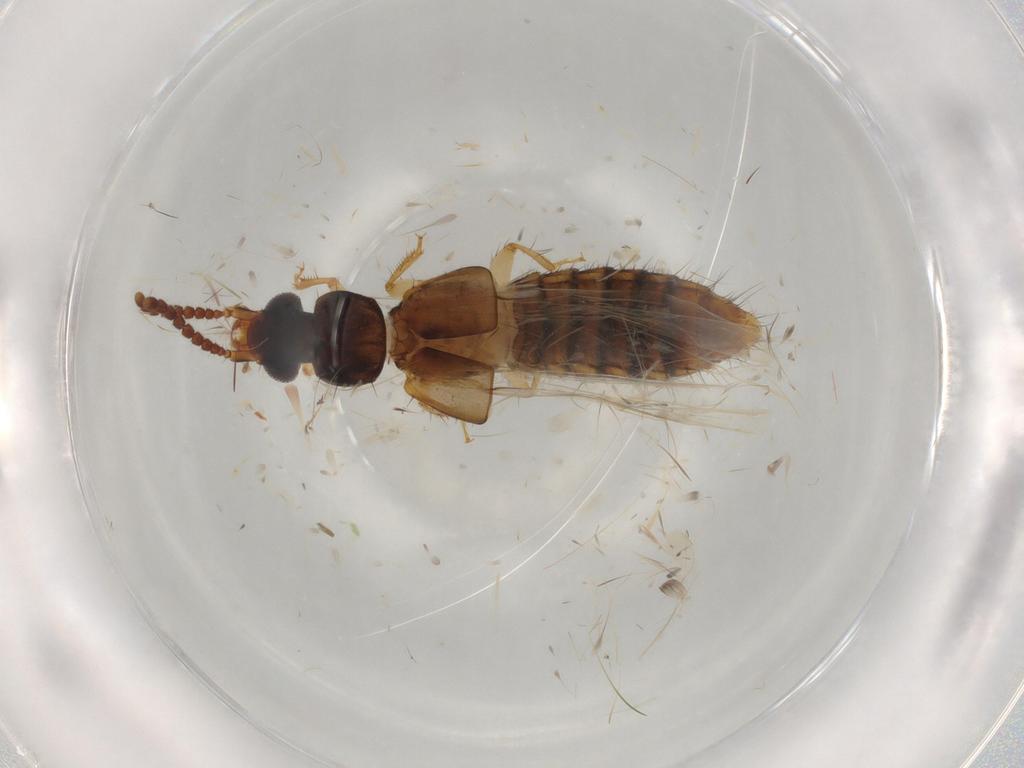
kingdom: Animalia
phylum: Arthropoda
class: Insecta
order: Coleoptera
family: Staphylinidae
